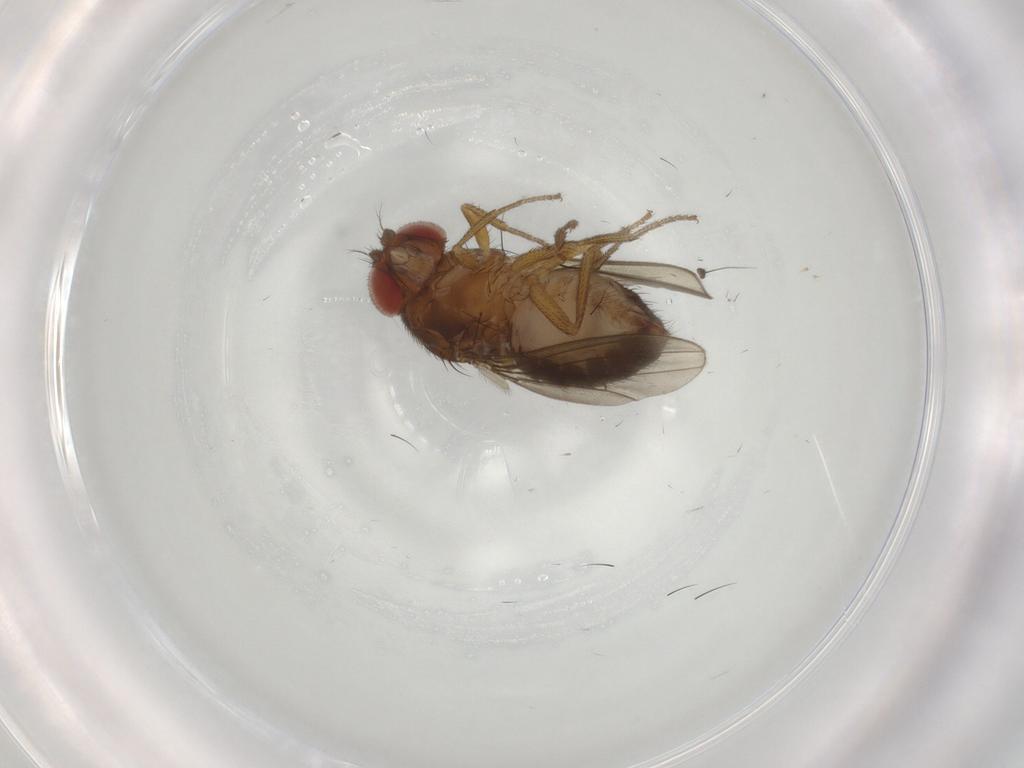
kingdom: Animalia
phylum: Arthropoda
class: Insecta
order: Diptera
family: Drosophilidae
